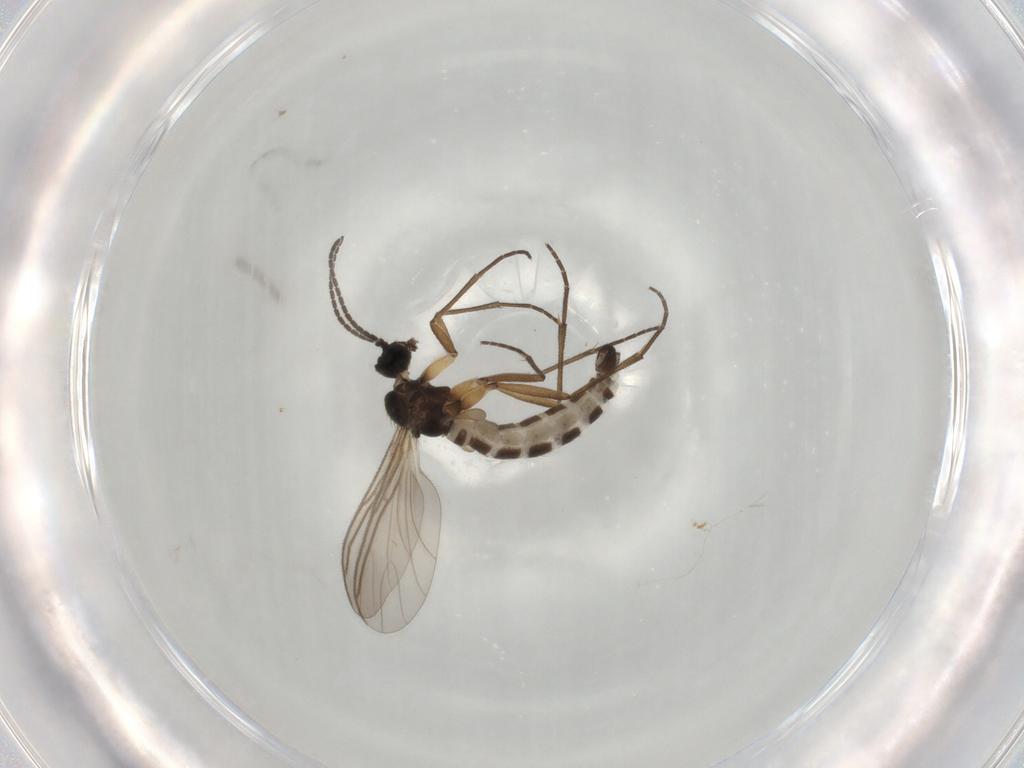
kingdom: Animalia
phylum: Arthropoda
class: Insecta
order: Diptera
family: Sciaridae
